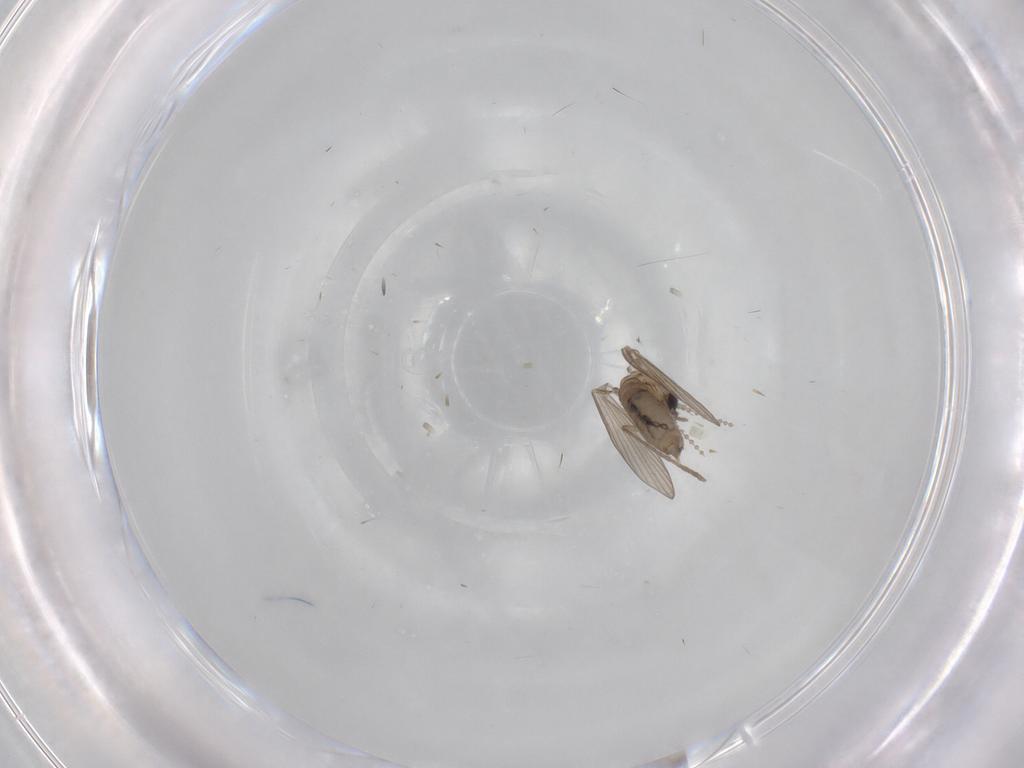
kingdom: Animalia
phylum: Arthropoda
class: Insecta
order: Diptera
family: Psychodidae
